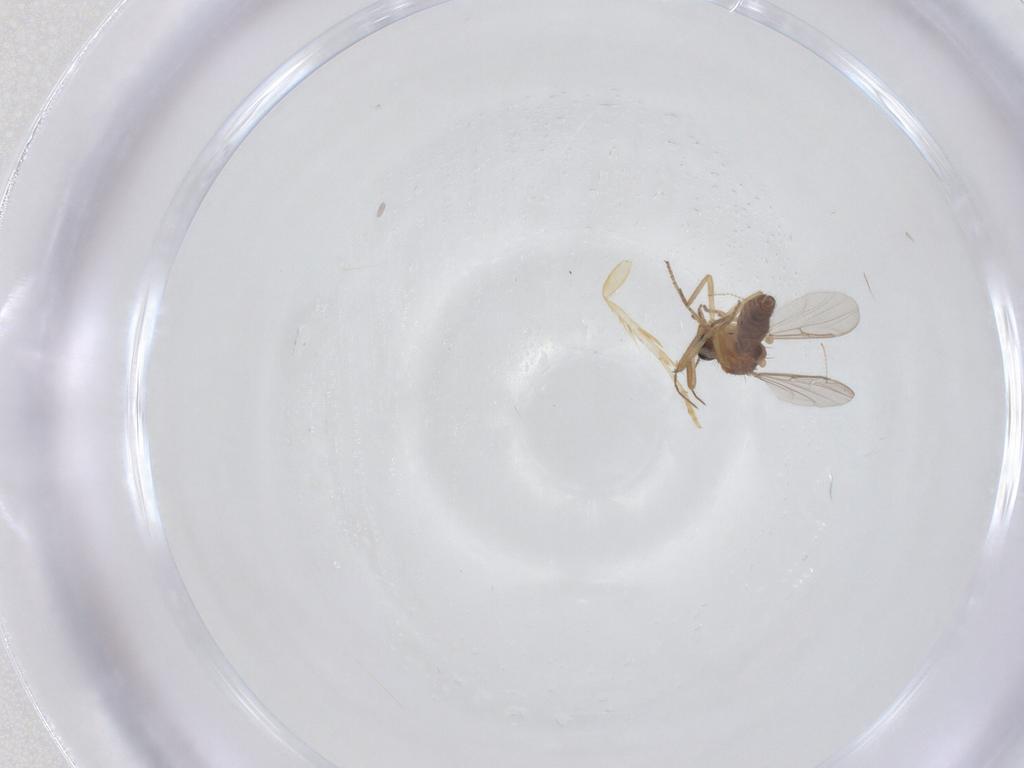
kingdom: Animalia
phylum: Arthropoda
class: Insecta
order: Diptera
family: Ceratopogonidae
